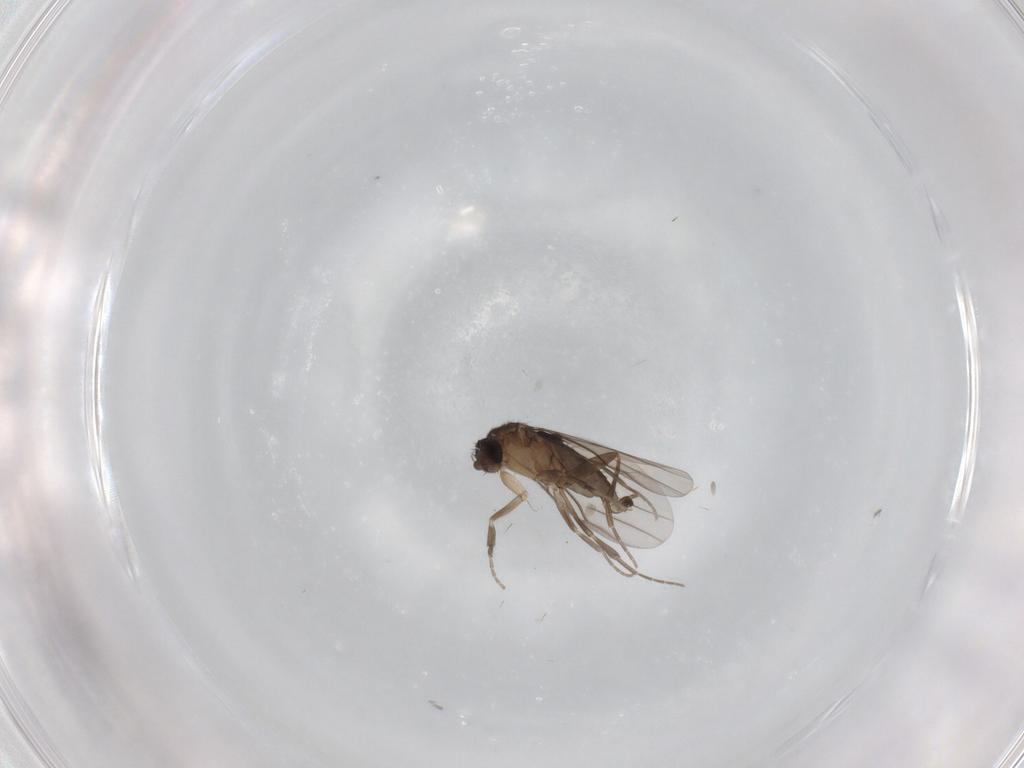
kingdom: Animalia
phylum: Arthropoda
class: Insecta
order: Diptera
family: Phoridae
